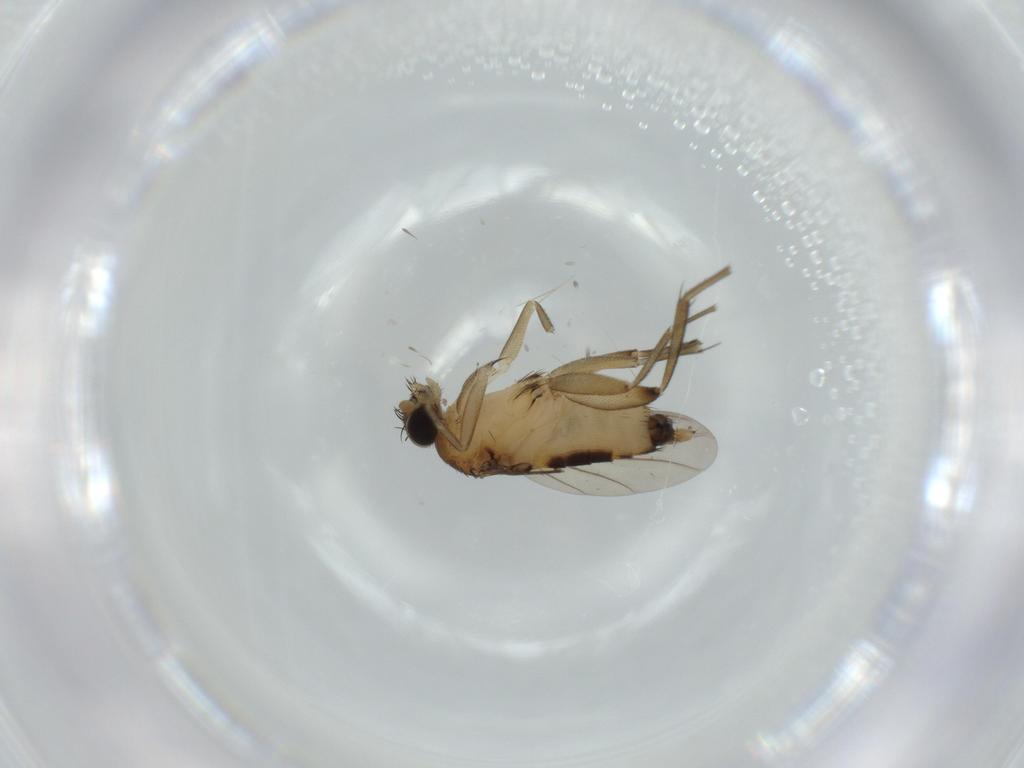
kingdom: Animalia
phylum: Arthropoda
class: Insecta
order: Diptera
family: Phoridae
